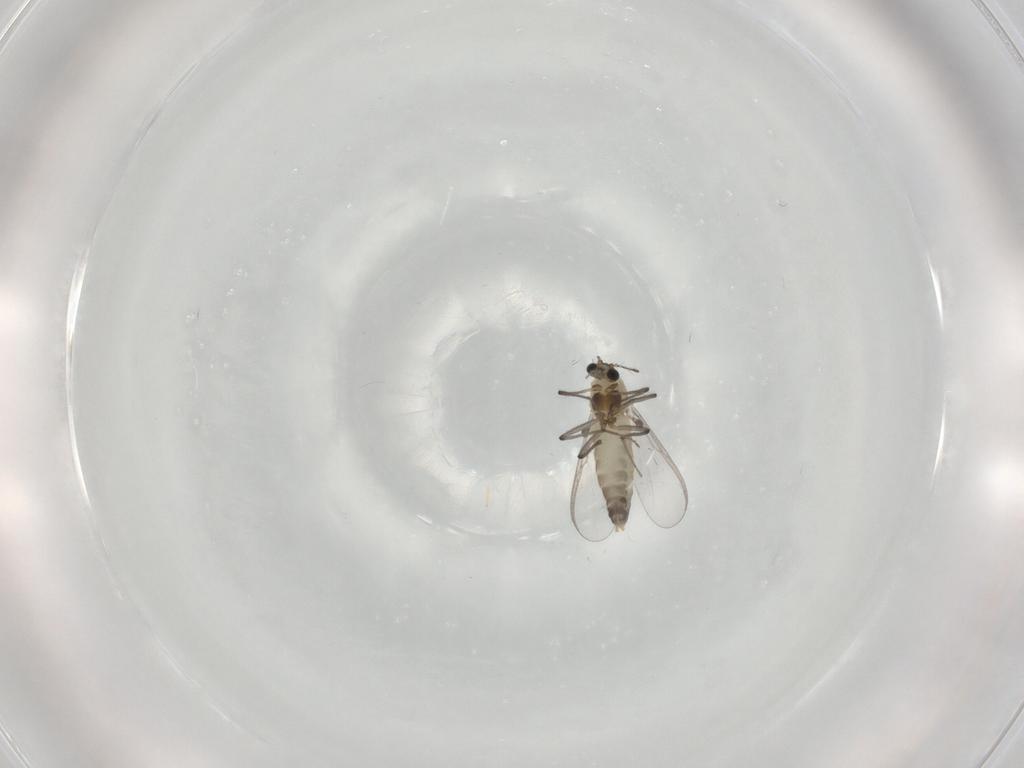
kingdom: Animalia
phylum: Arthropoda
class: Insecta
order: Diptera
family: Chironomidae
